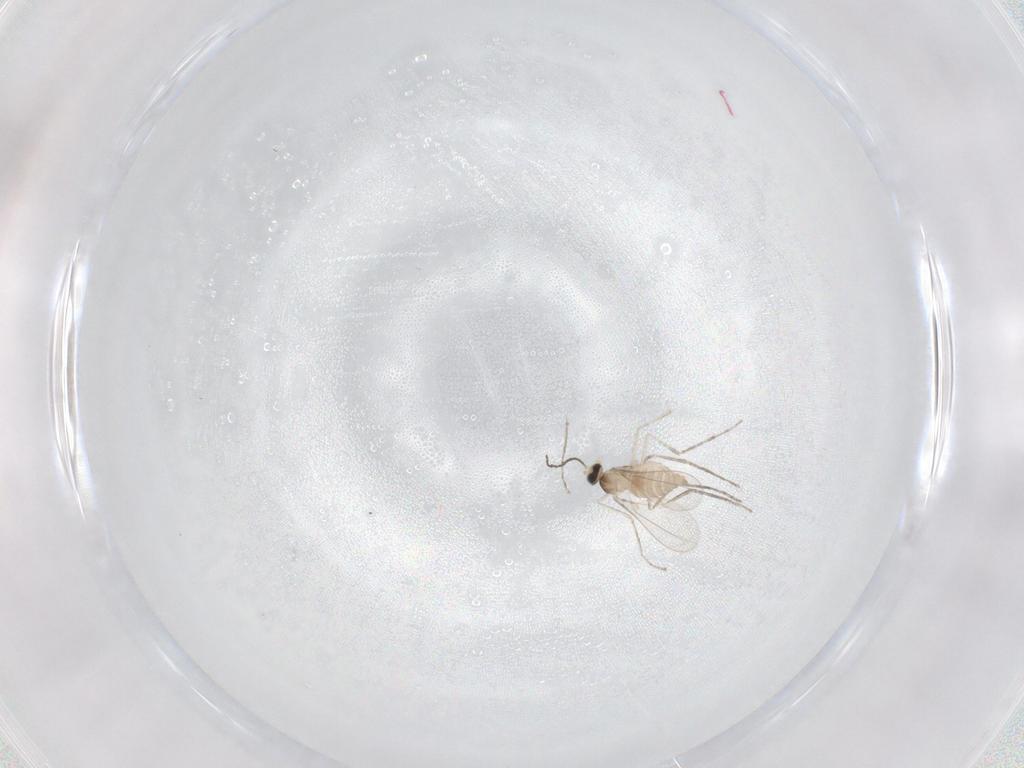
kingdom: Animalia
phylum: Arthropoda
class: Insecta
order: Diptera
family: Cecidomyiidae
